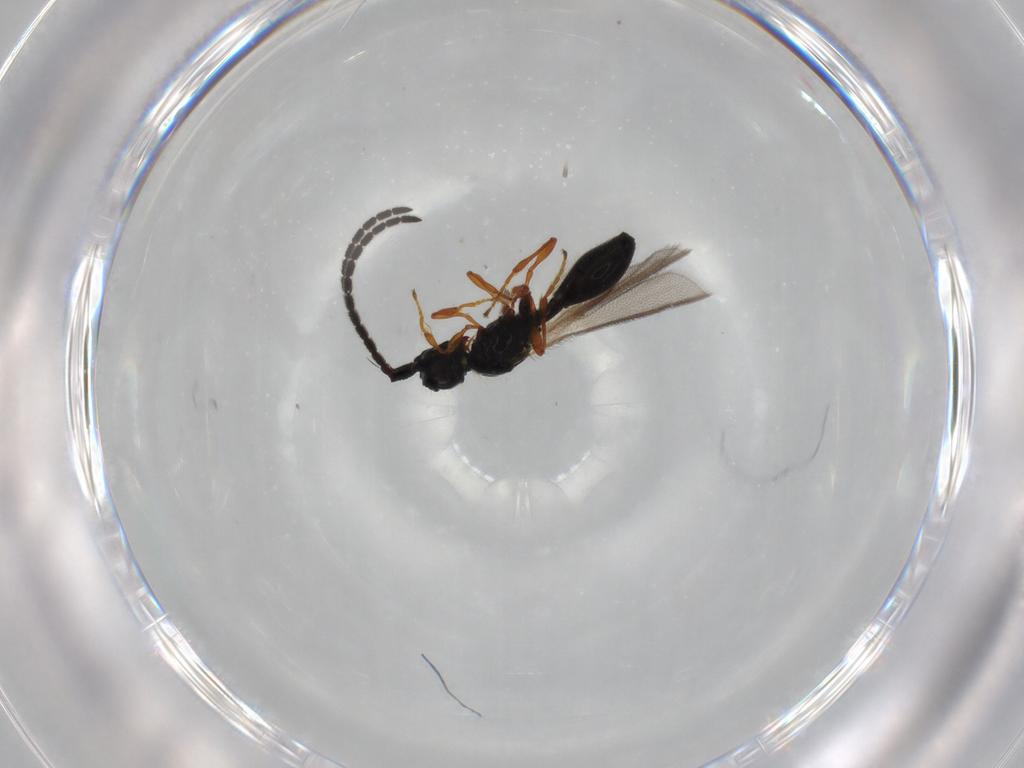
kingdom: Animalia
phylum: Arthropoda
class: Insecta
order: Hymenoptera
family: Diapriidae
